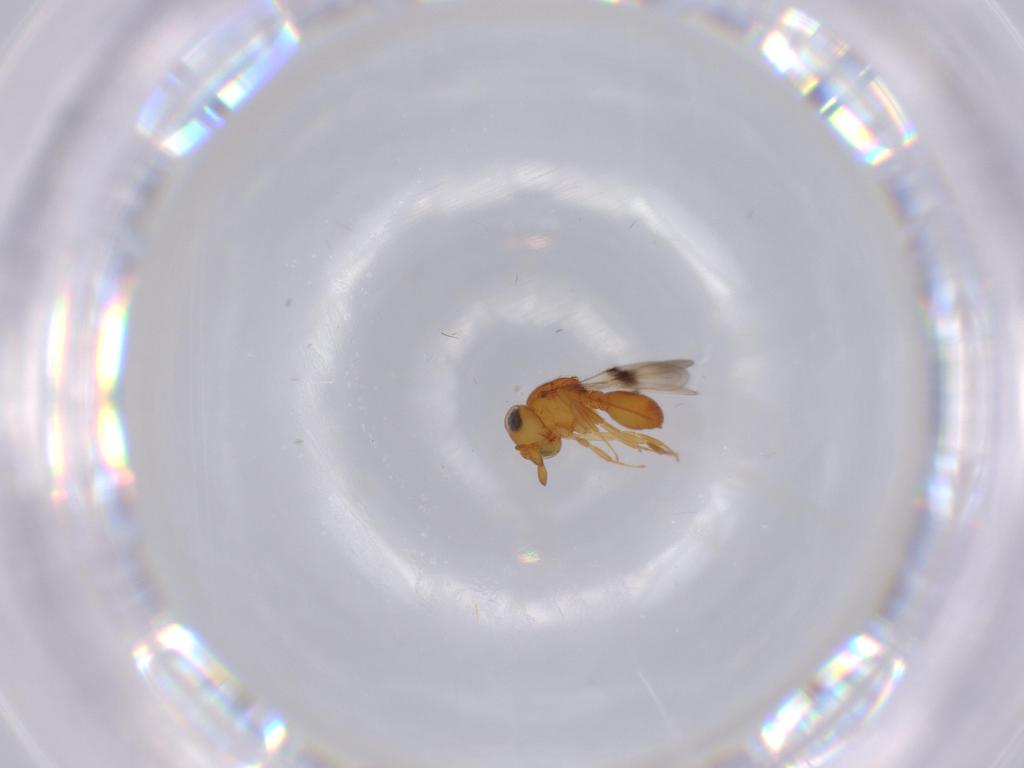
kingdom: Animalia
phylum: Arthropoda
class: Insecta
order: Hymenoptera
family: Scelionidae
